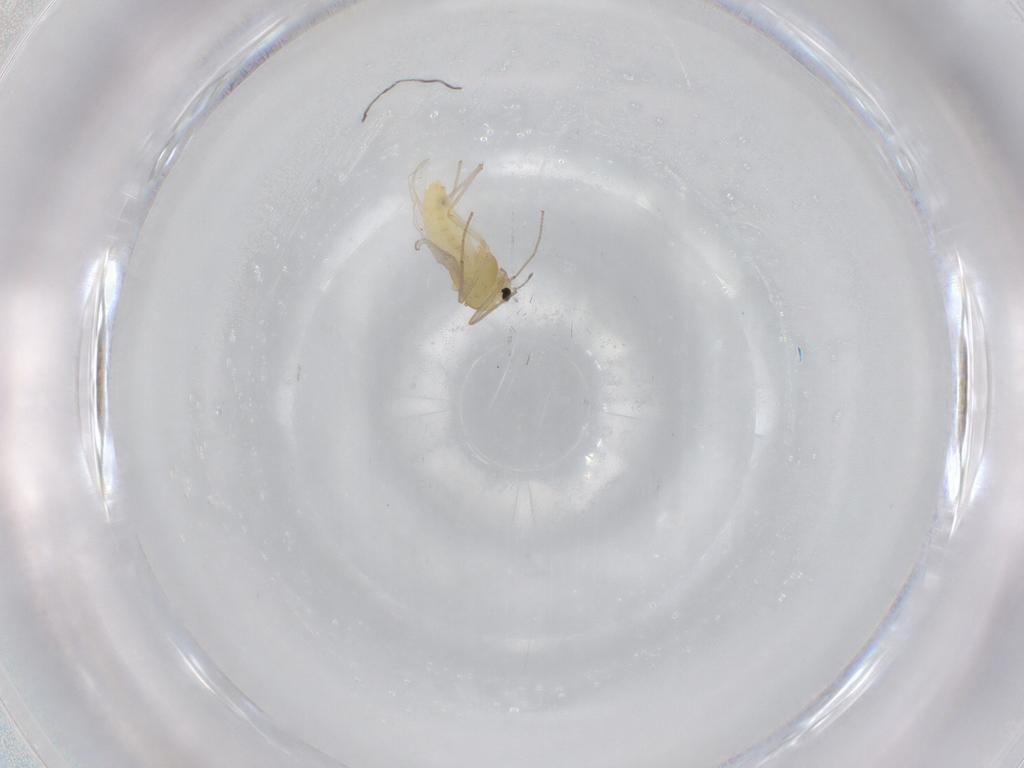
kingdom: Animalia
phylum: Arthropoda
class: Insecta
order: Diptera
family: Chironomidae
